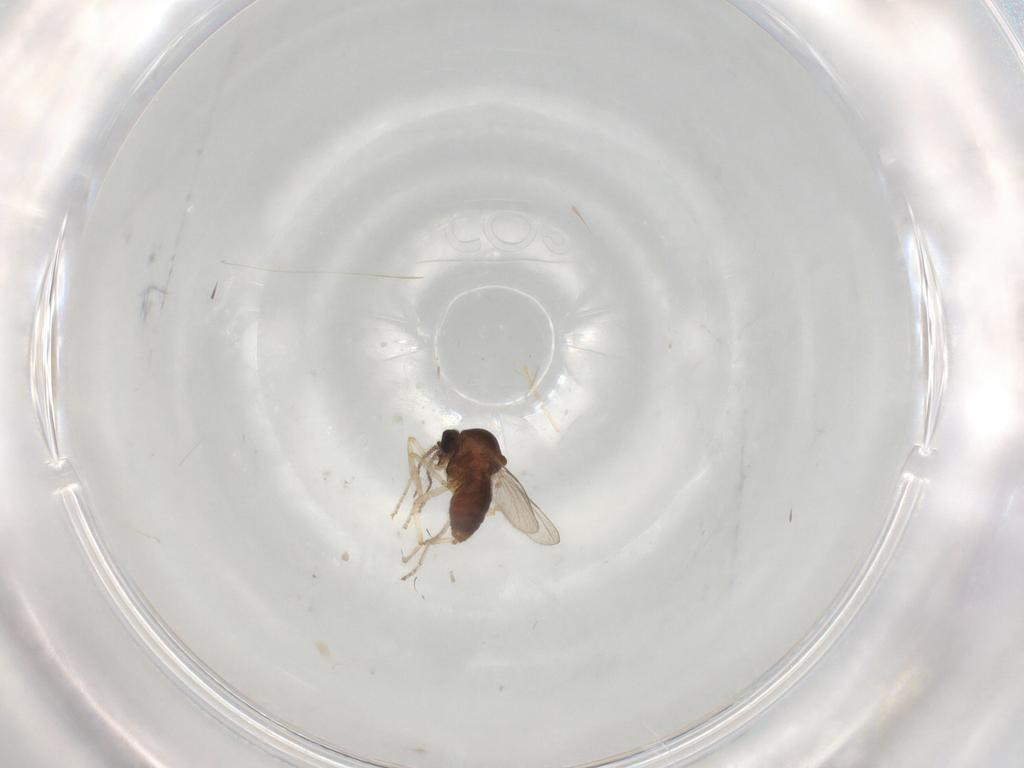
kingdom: Animalia
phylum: Arthropoda
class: Insecta
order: Diptera
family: Ceratopogonidae
